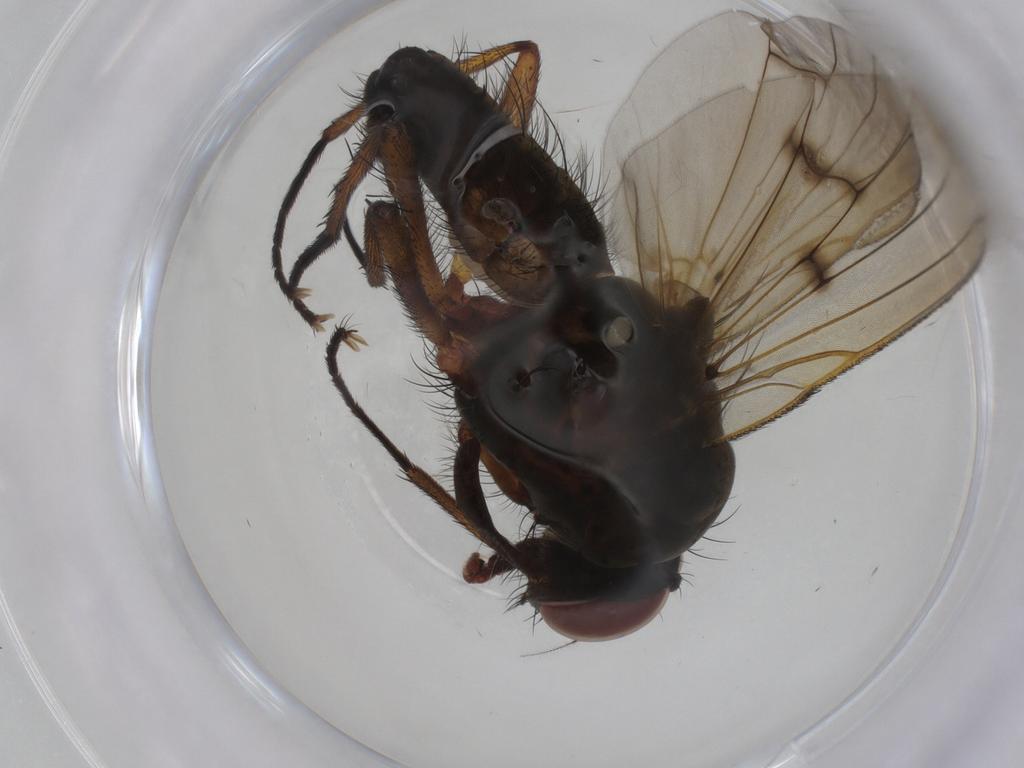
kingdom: Animalia
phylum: Arthropoda
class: Insecta
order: Diptera
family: Anthomyiidae
